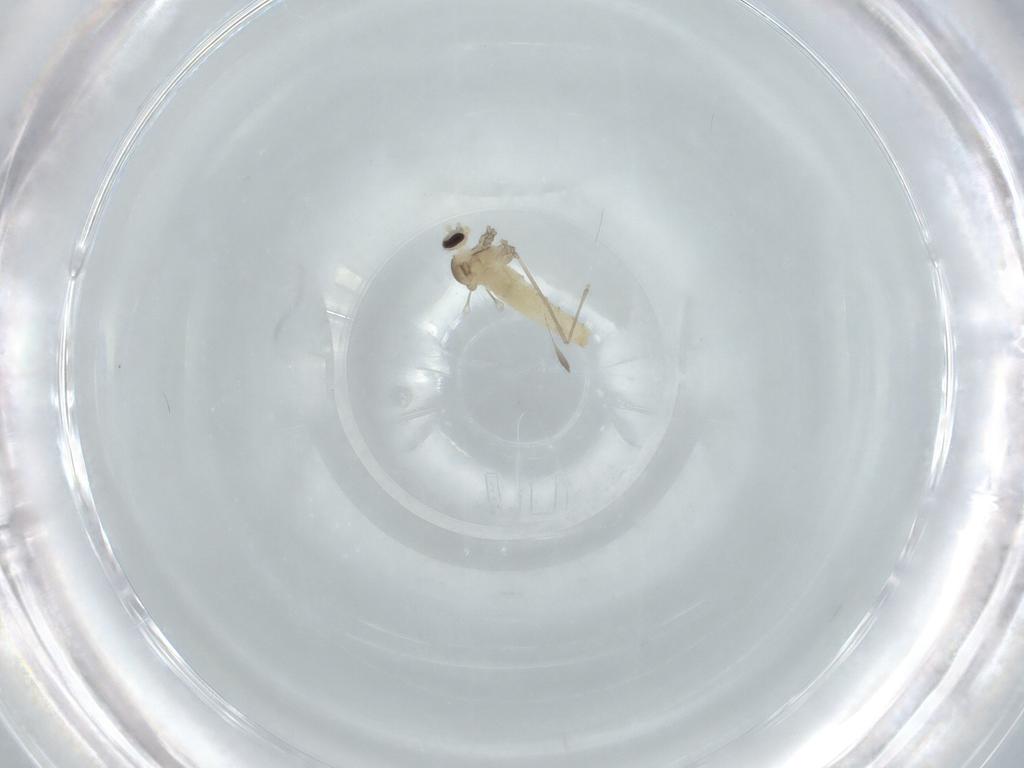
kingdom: Animalia
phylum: Arthropoda
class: Insecta
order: Diptera
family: Cecidomyiidae
